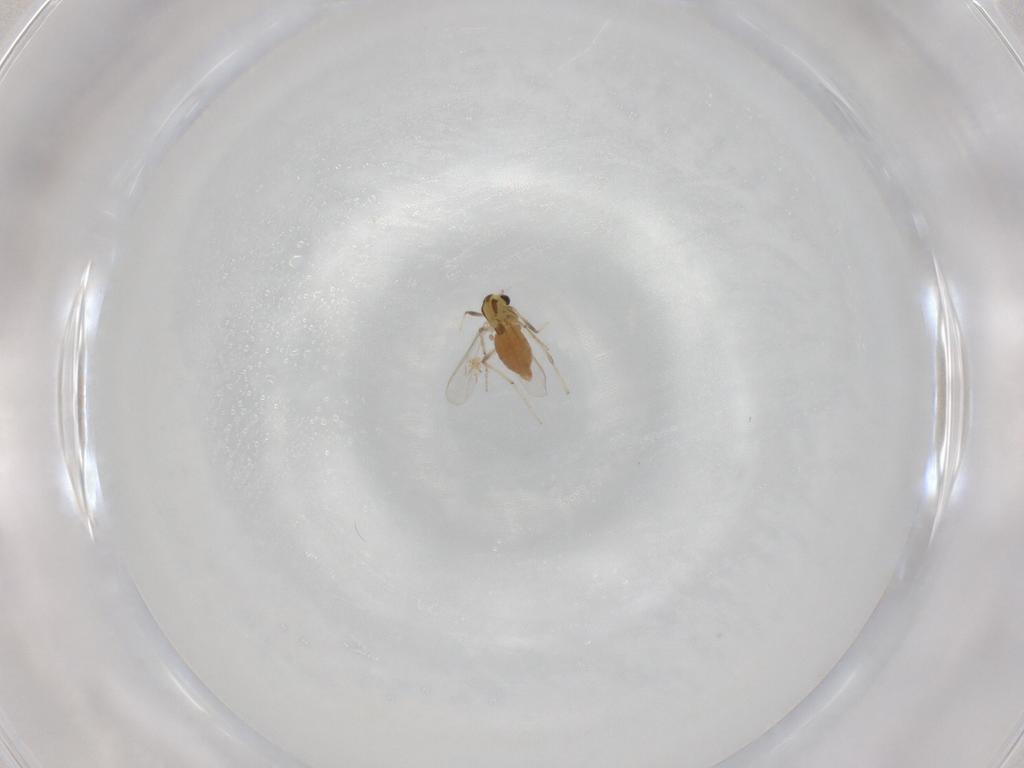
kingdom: Animalia
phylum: Arthropoda
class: Insecta
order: Diptera
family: Chironomidae
